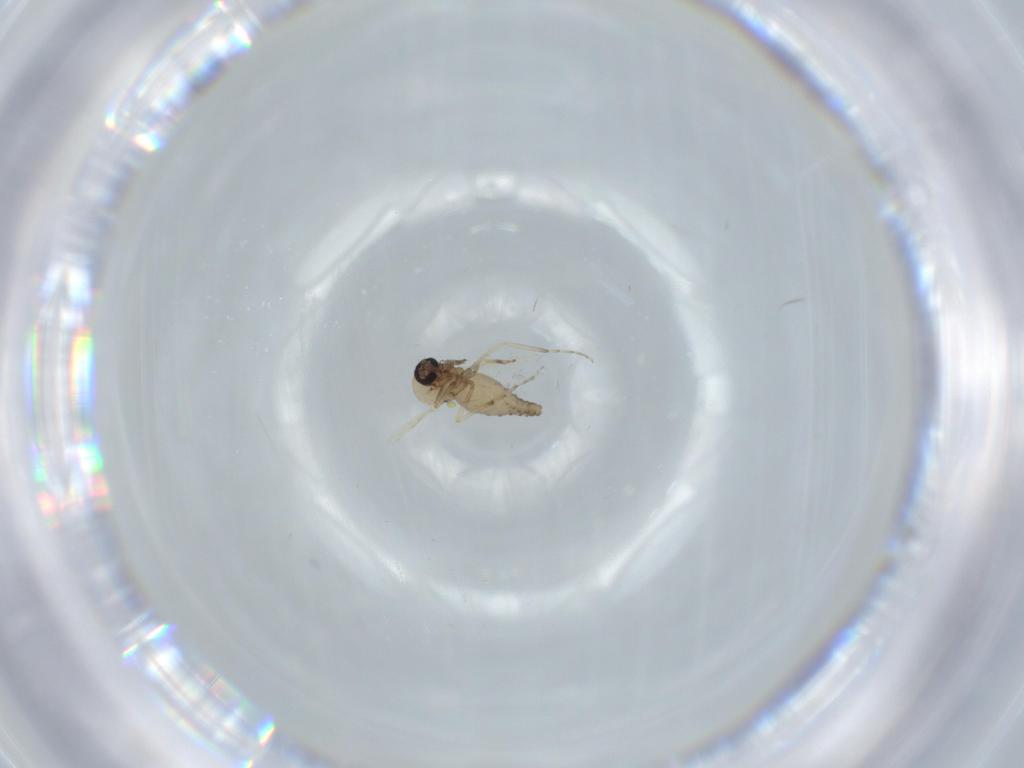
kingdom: Animalia
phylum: Arthropoda
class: Insecta
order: Diptera
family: Ceratopogonidae
